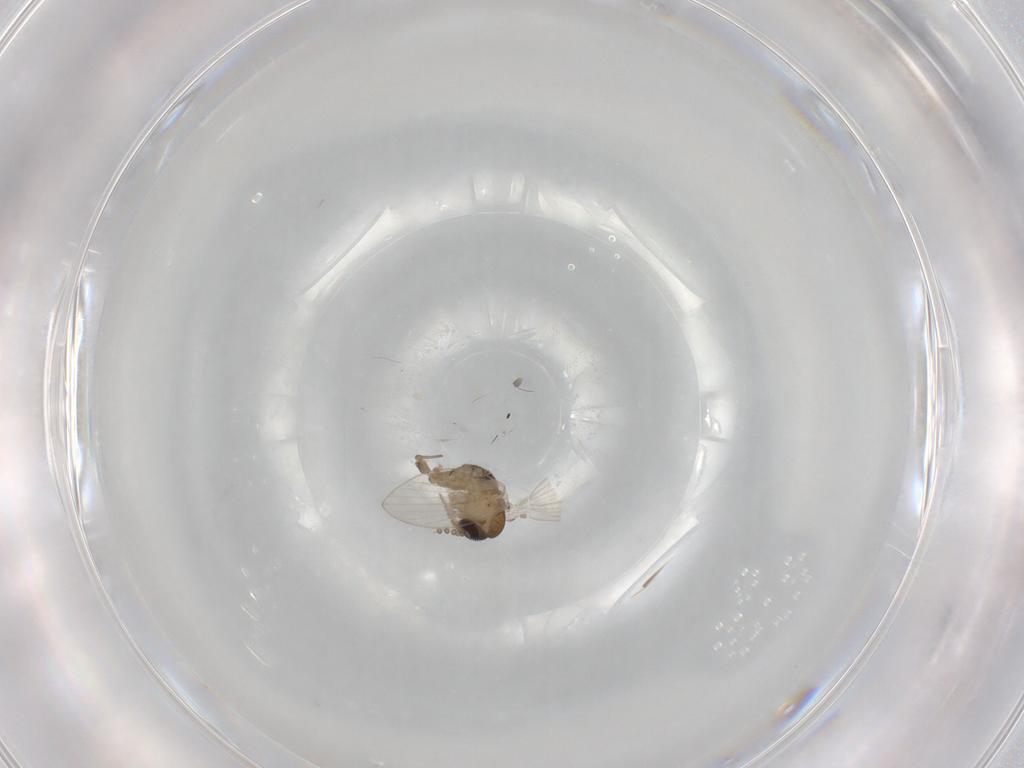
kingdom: Animalia
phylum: Arthropoda
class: Insecta
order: Diptera
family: Psychodidae
